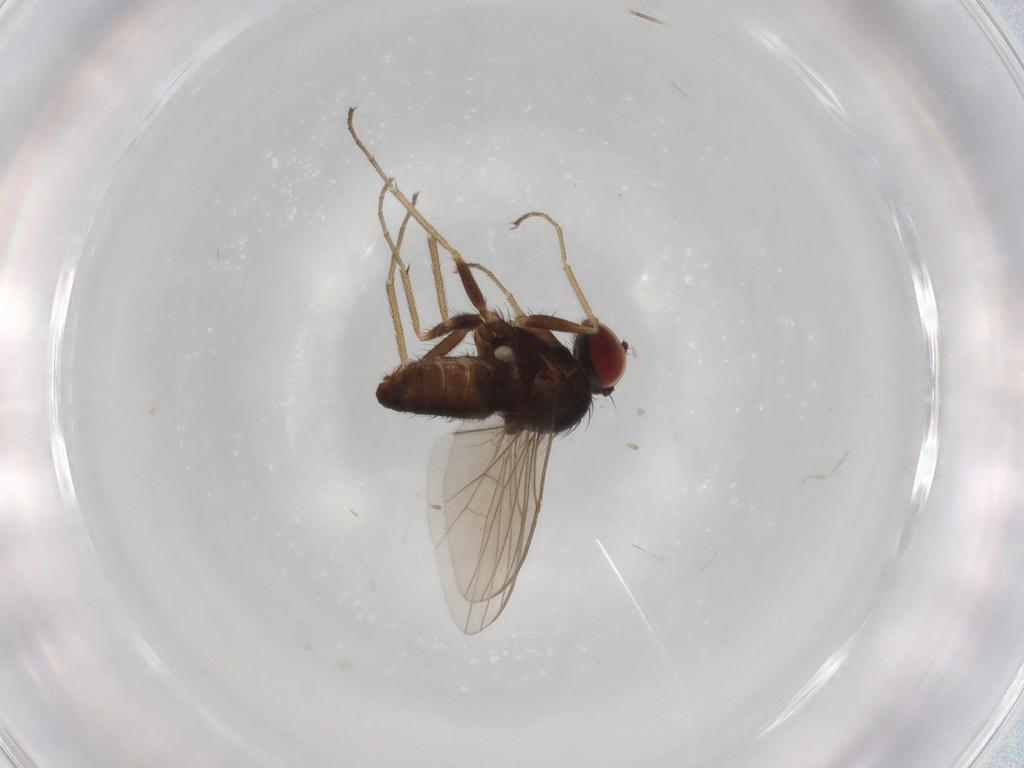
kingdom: Animalia
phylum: Arthropoda
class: Insecta
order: Diptera
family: Dolichopodidae
